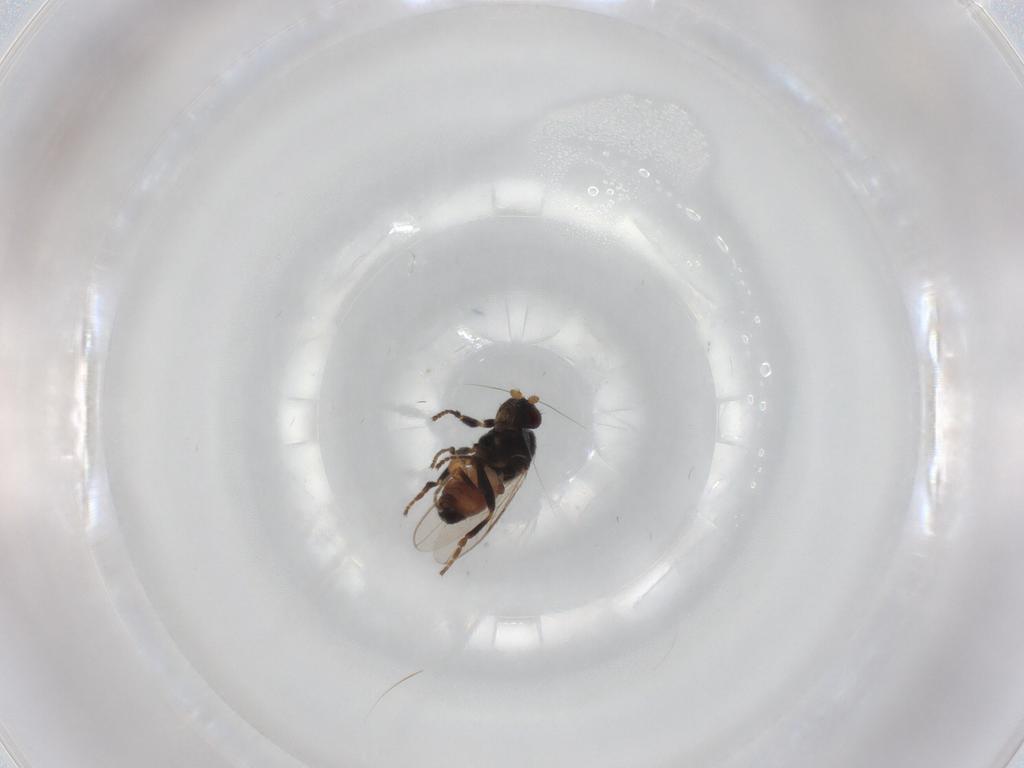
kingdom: Animalia
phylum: Arthropoda
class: Insecta
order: Diptera
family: Sphaeroceridae
